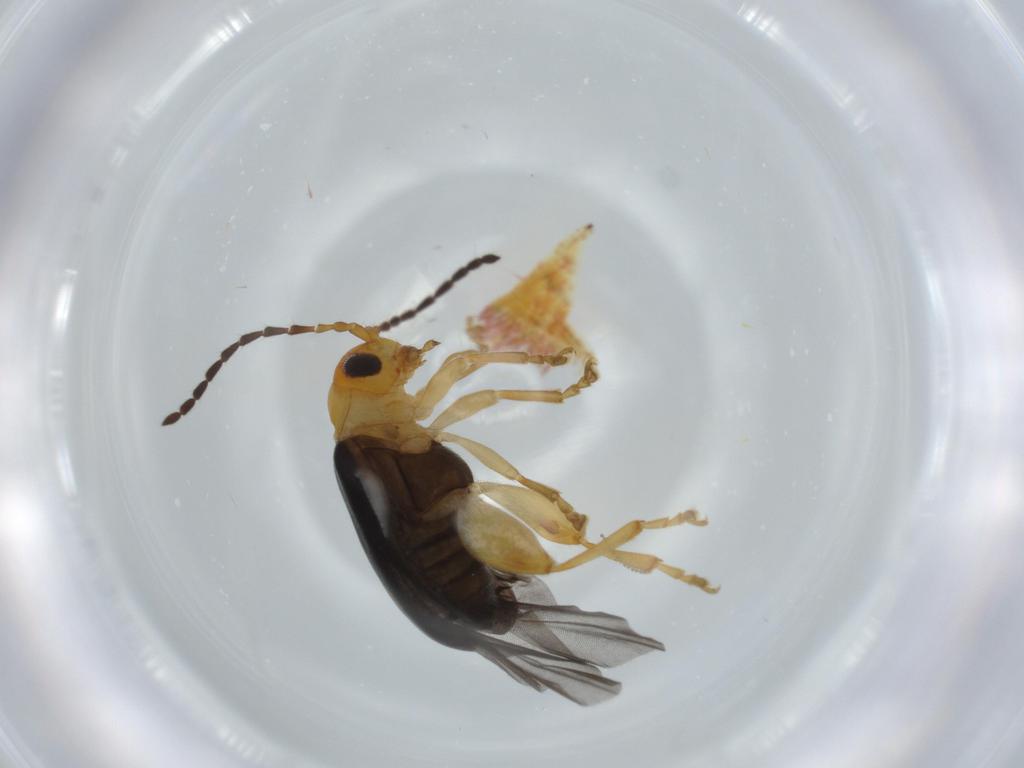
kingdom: Animalia
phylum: Arthropoda
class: Insecta
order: Coleoptera
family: Chrysomelidae
